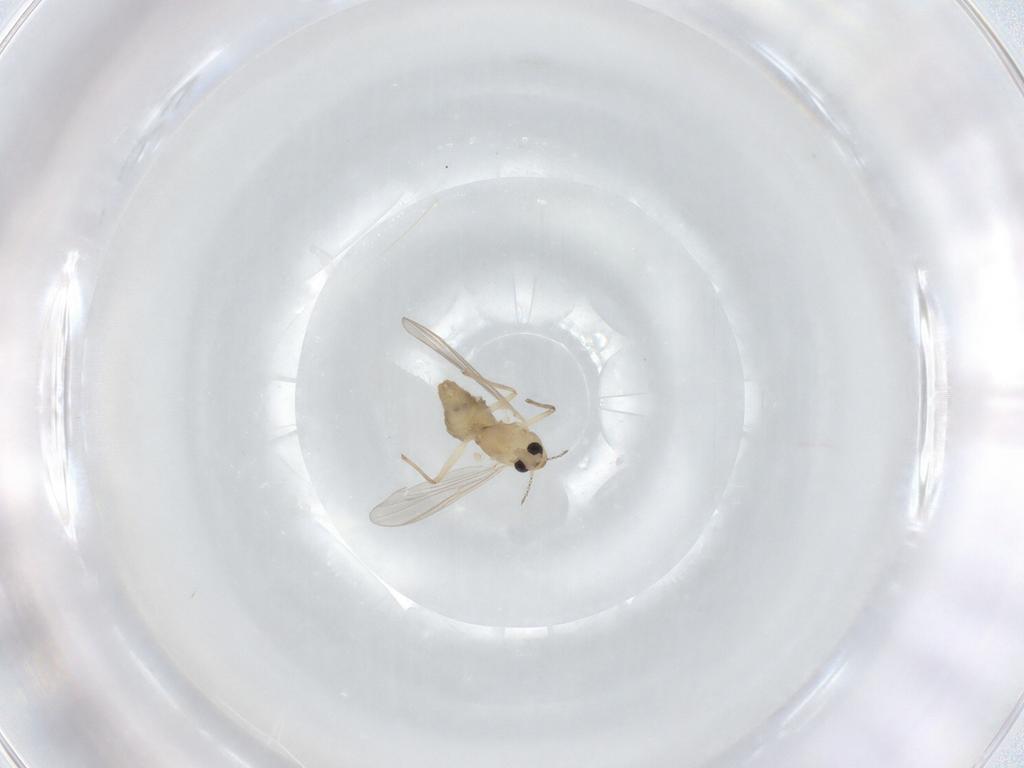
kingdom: Animalia
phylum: Arthropoda
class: Insecta
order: Diptera
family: Chironomidae
